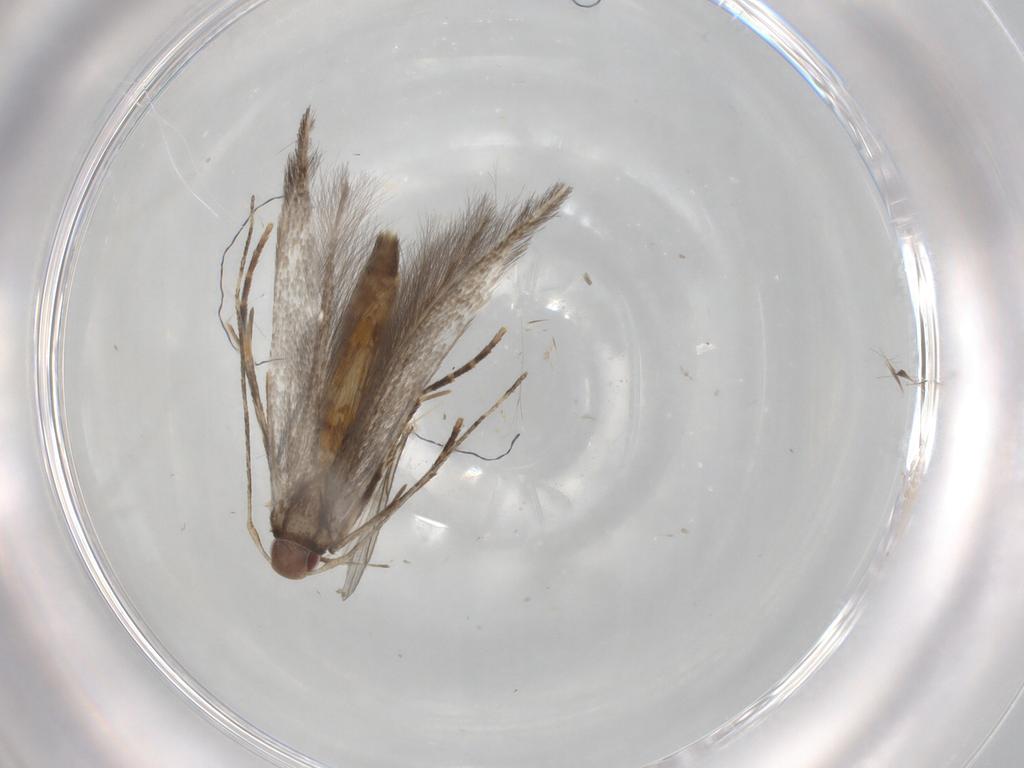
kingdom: Animalia
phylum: Arthropoda
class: Insecta
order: Lepidoptera
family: Cosmopterigidae
